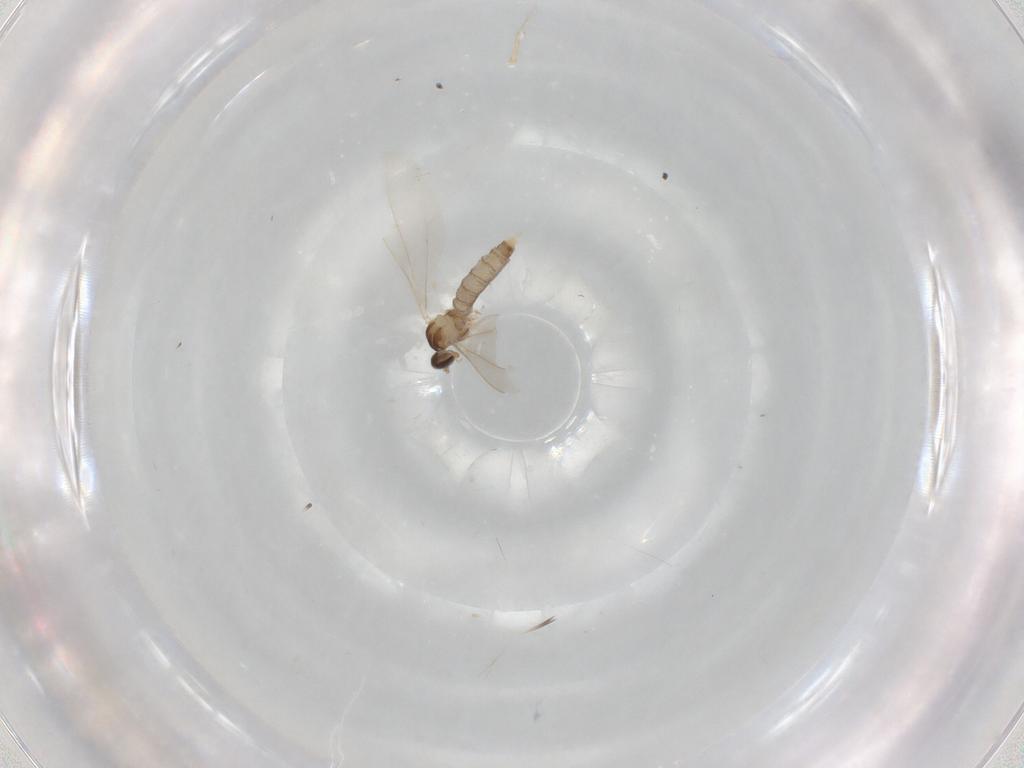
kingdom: Animalia
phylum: Arthropoda
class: Insecta
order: Diptera
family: Cecidomyiidae
